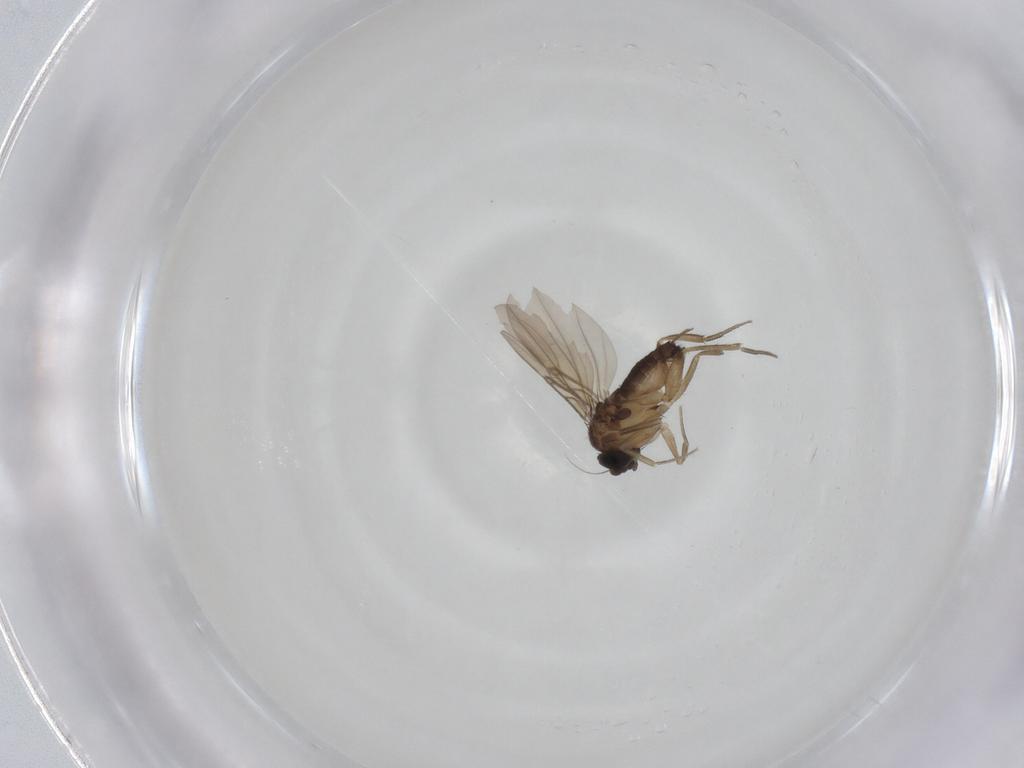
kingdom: Animalia
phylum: Arthropoda
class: Insecta
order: Diptera
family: Phoridae
